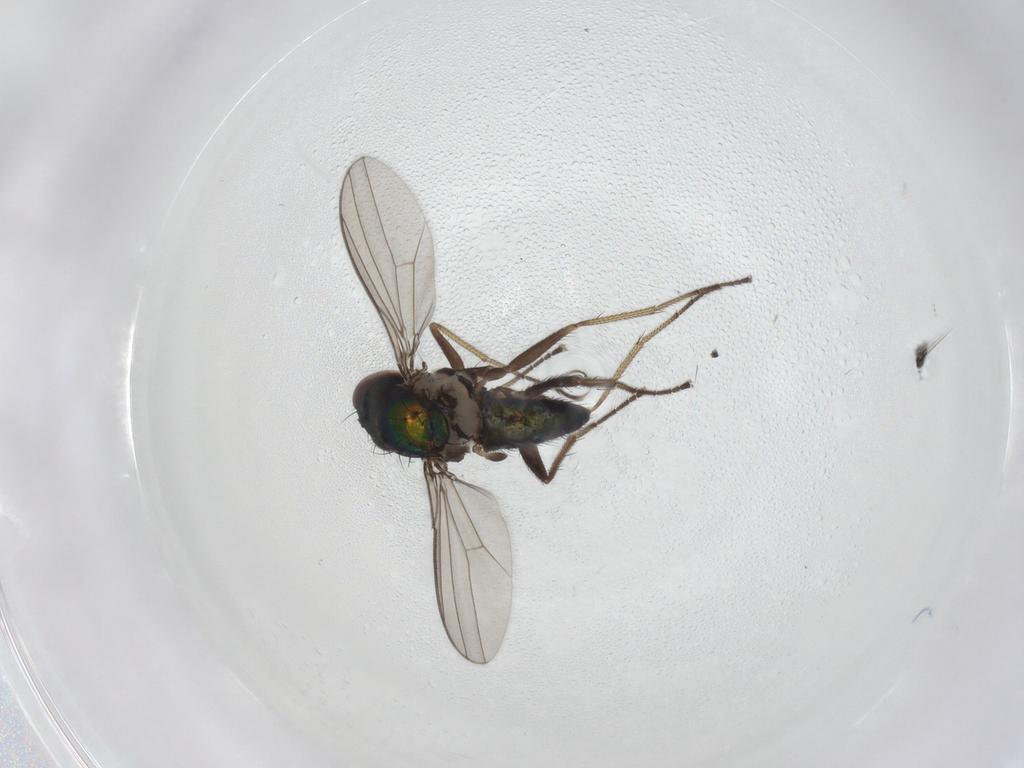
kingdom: Animalia
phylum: Arthropoda
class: Insecta
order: Diptera
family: Dolichopodidae
